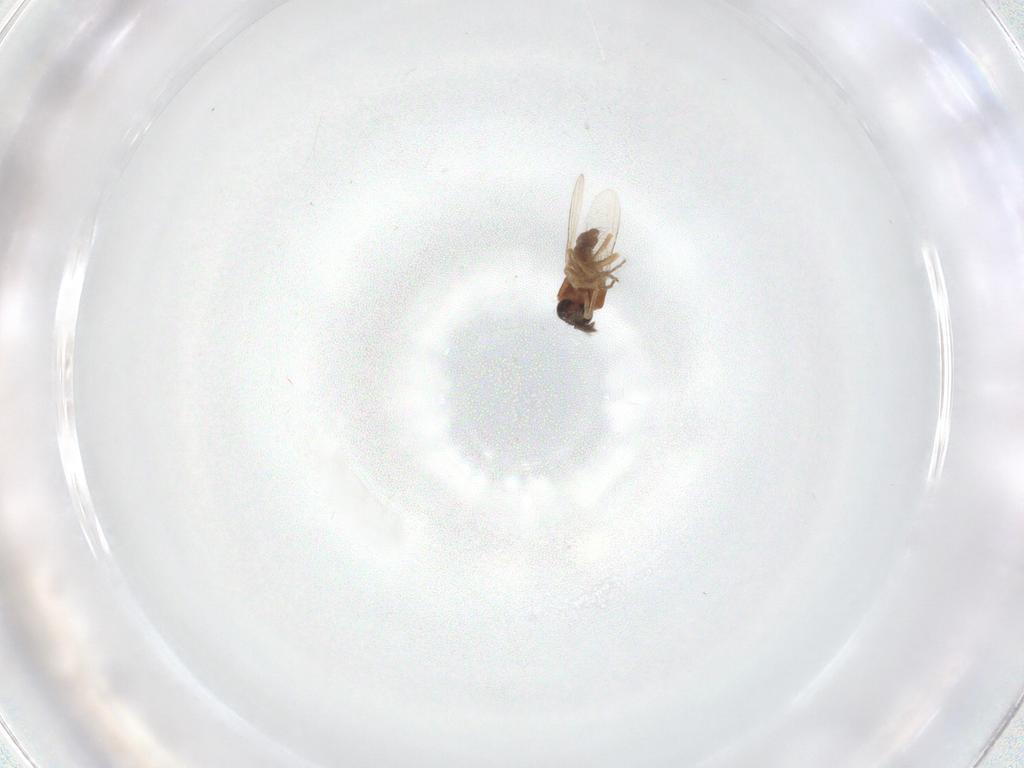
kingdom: Animalia
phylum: Arthropoda
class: Insecta
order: Diptera
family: Ceratopogonidae
